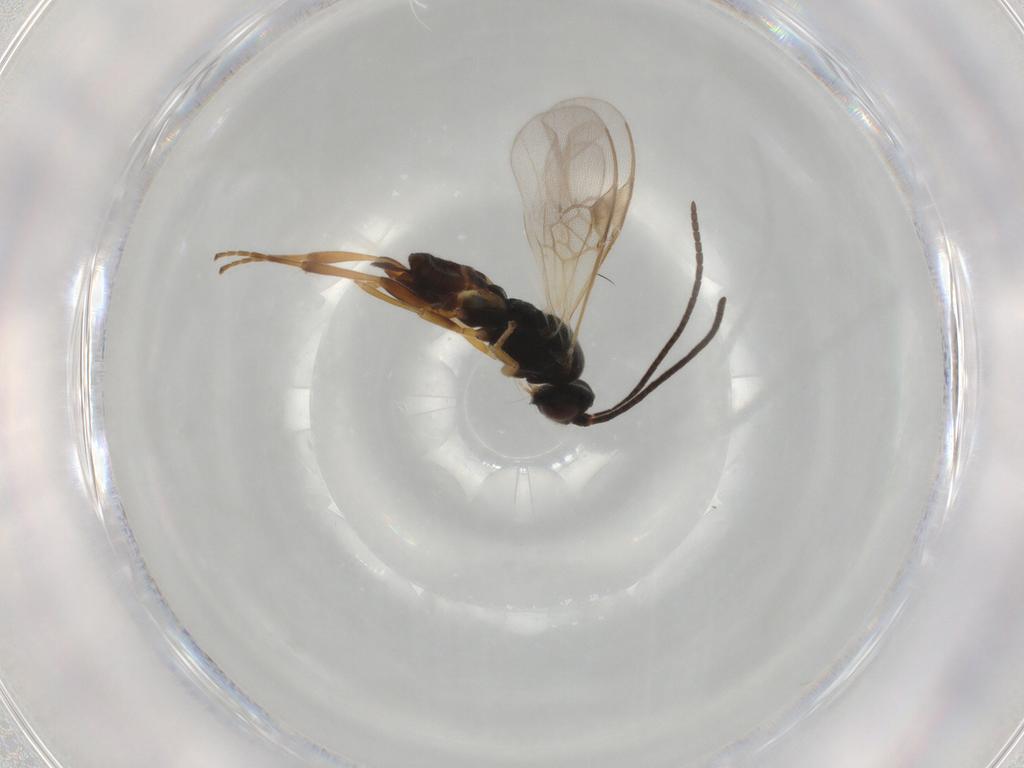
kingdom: Animalia
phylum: Arthropoda
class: Insecta
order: Hymenoptera
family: Braconidae
